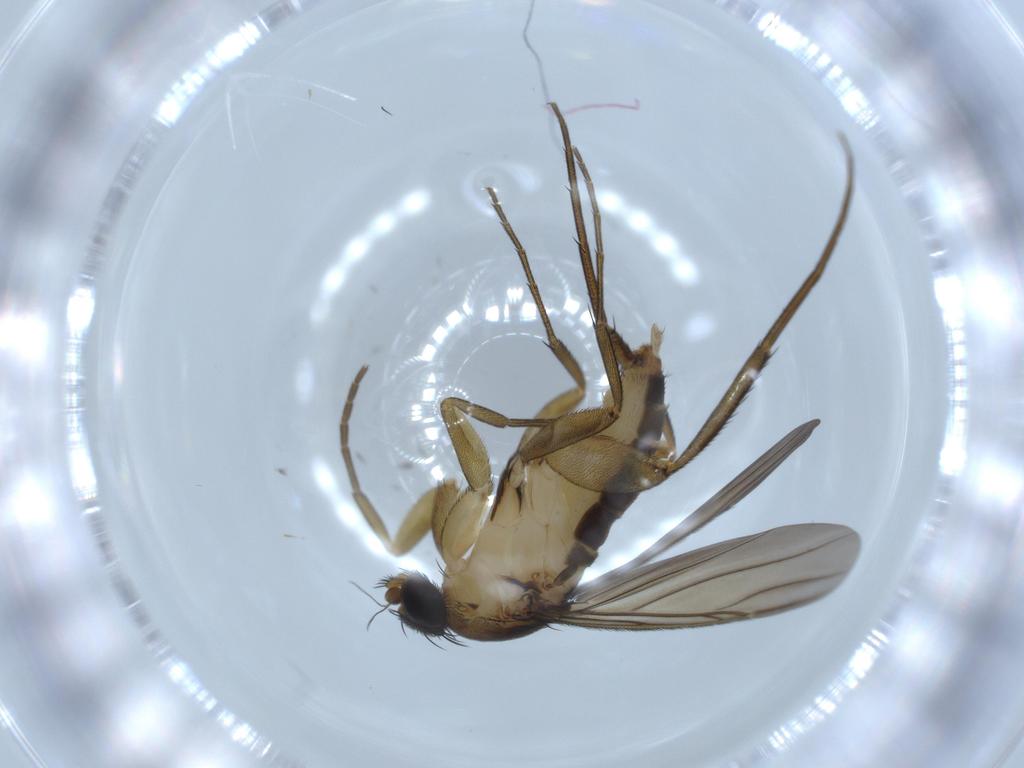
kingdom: Animalia
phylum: Arthropoda
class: Insecta
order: Diptera
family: Phoridae
